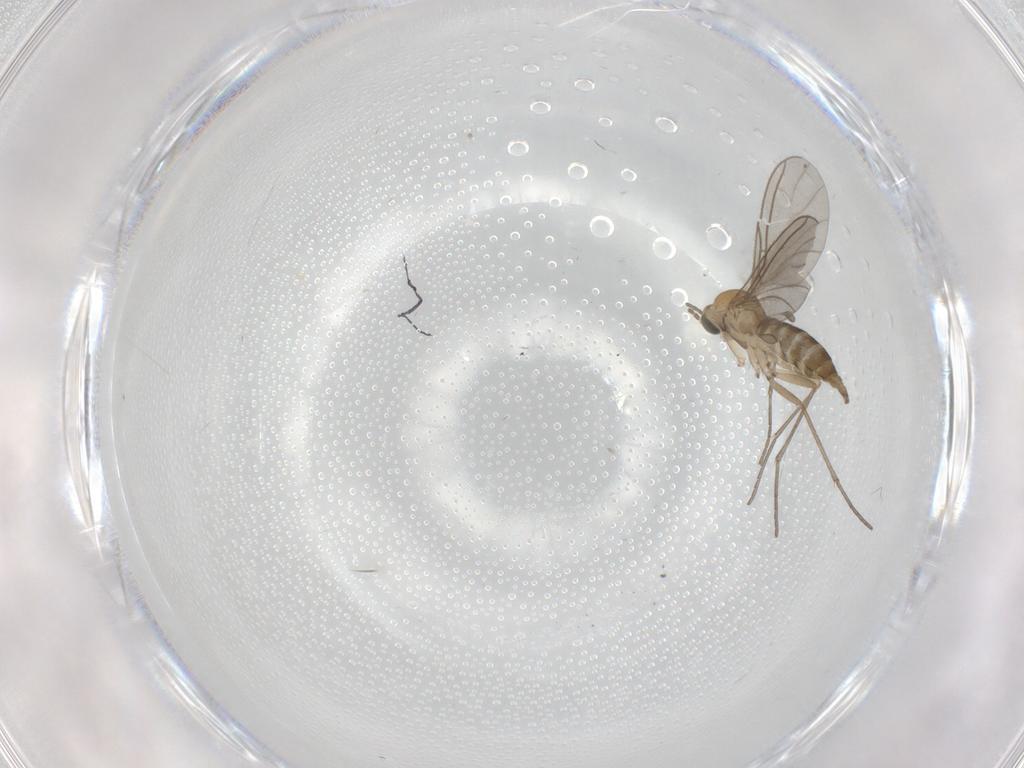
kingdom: Animalia
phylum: Arthropoda
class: Insecta
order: Diptera
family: Sciaridae
